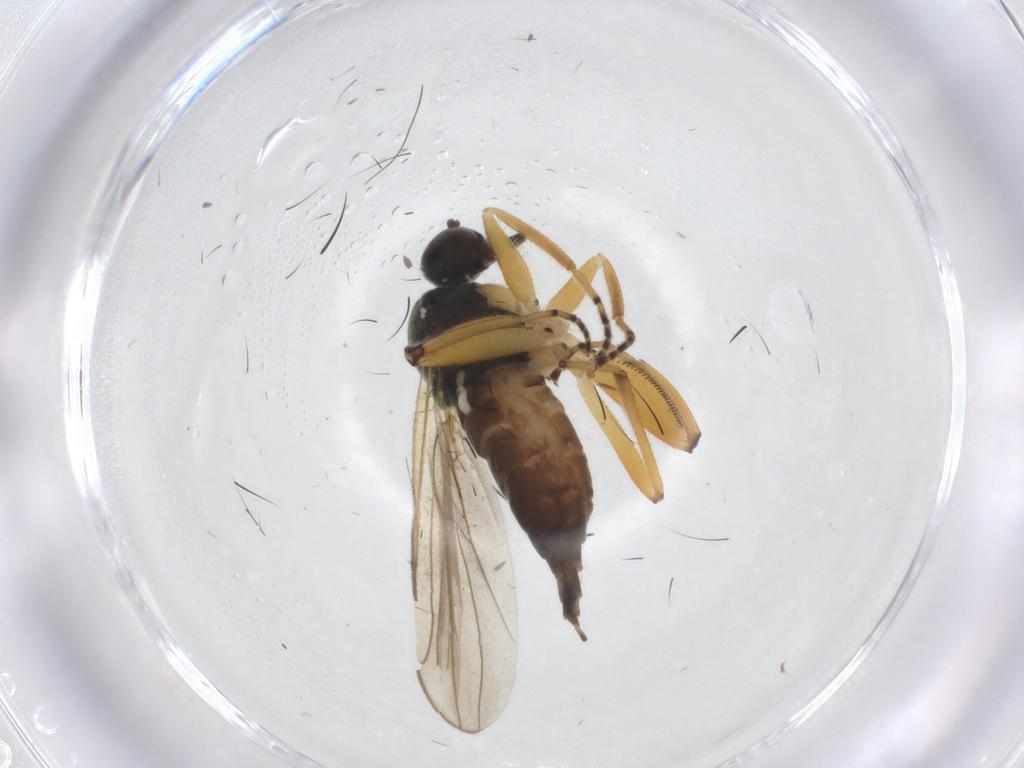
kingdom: Animalia
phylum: Arthropoda
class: Insecta
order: Diptera
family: Hybotidae
